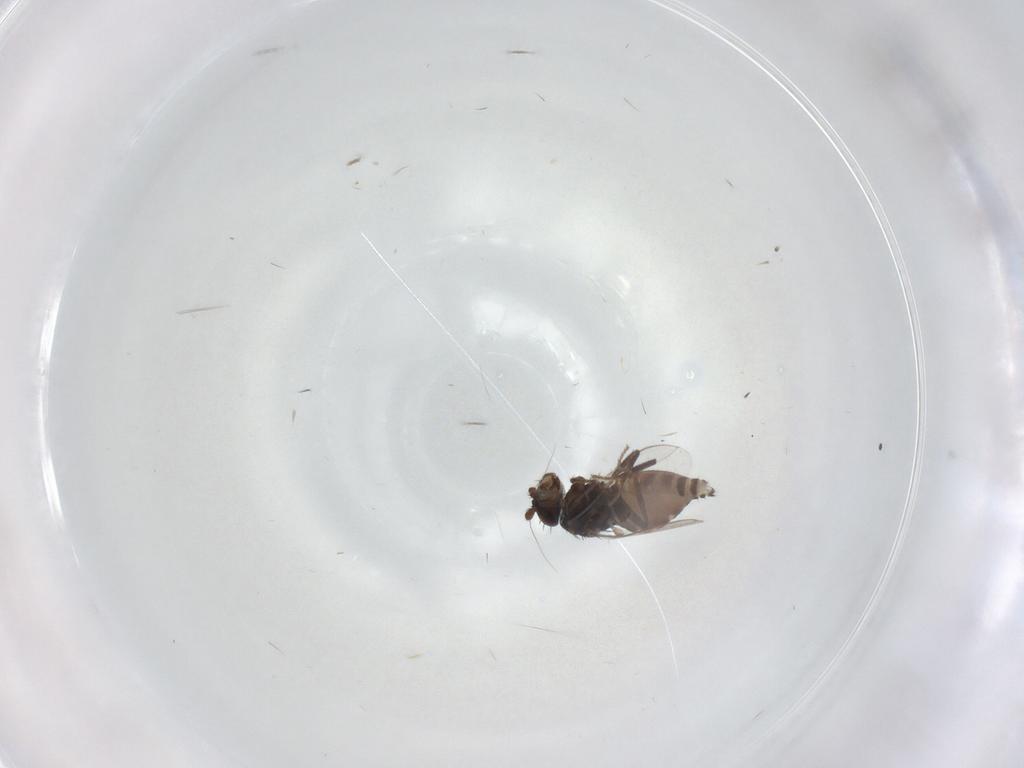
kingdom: Animalia
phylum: Arthropoda
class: Insecta
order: Diptera
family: Sphaeroceridae
